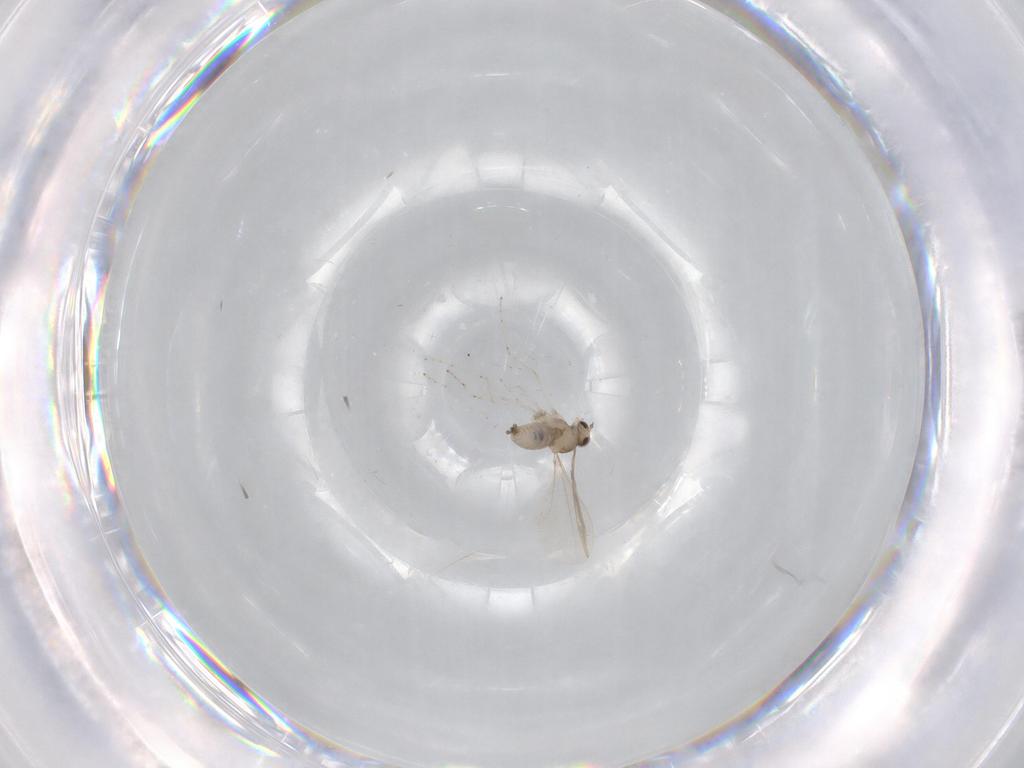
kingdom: Animalia
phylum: Arthropoda
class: Insecta
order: Diptera
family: Cecidomyiidae
